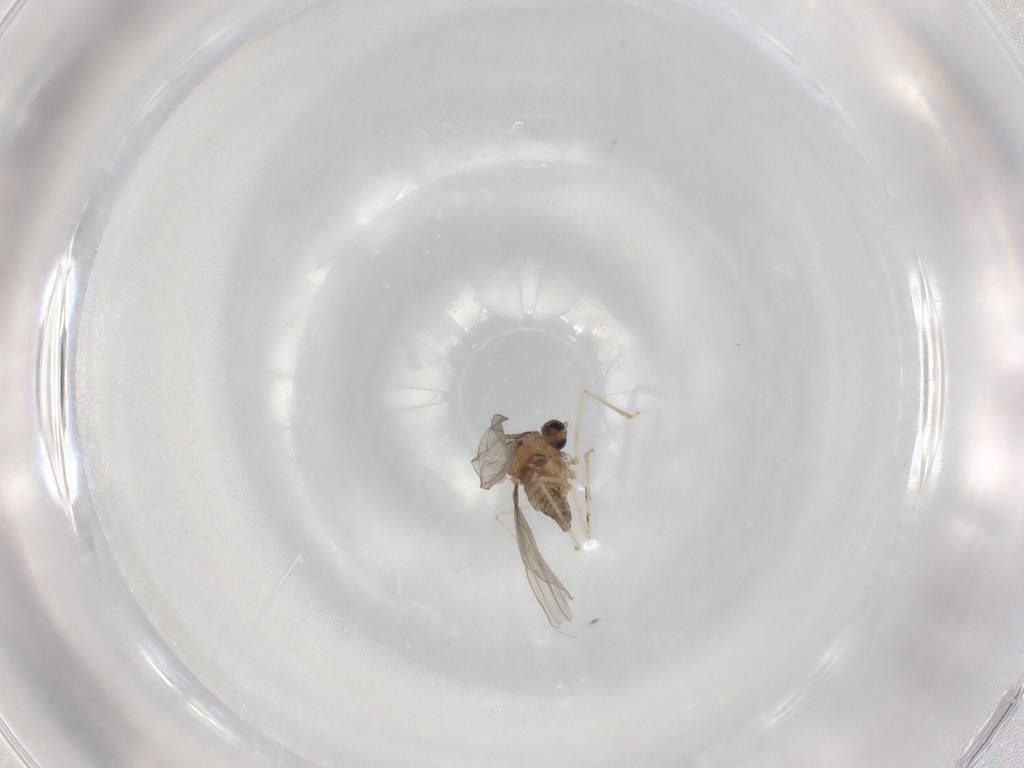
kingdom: Animalia
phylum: Arthropoda
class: Insecta
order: Diptera
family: Cecidomyiidae
